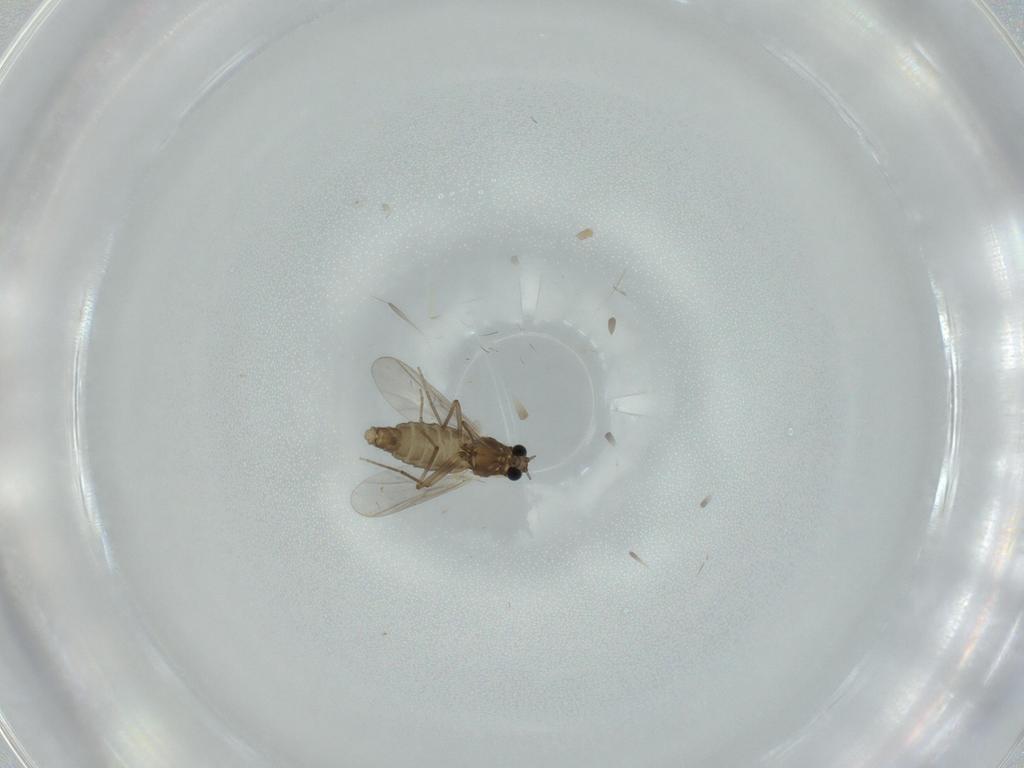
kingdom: Animalia
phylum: Arthropoda
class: Insecta
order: Diptera
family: Chironomidae
